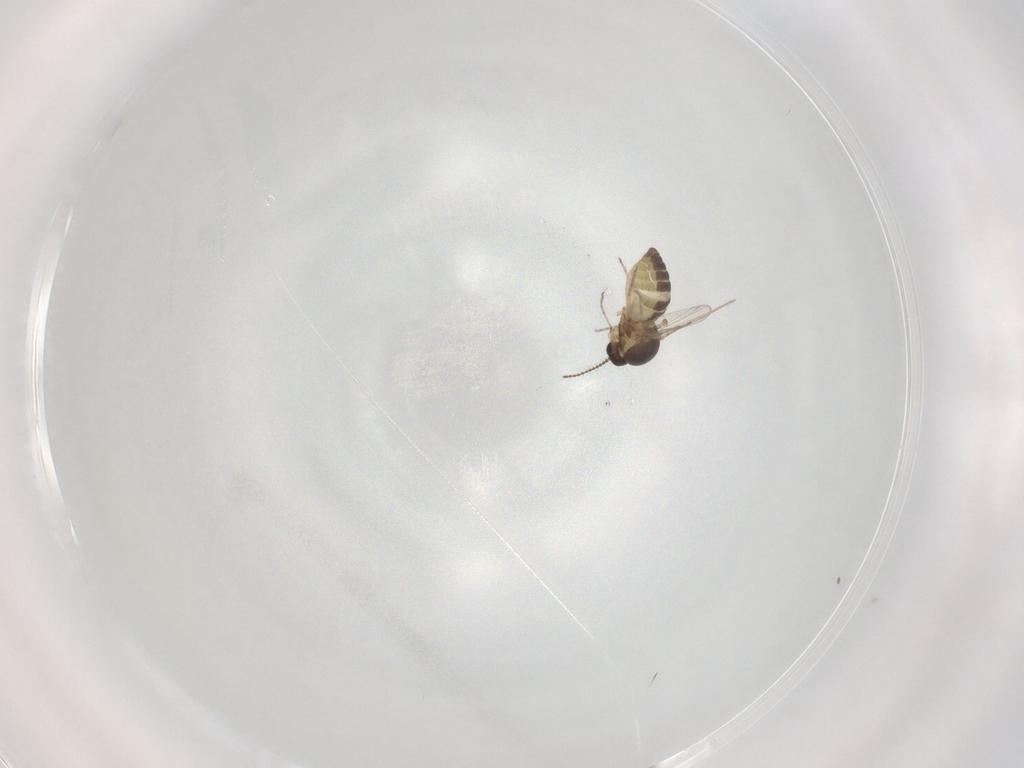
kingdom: Animalia
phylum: Arthropoda
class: Insecta
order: Diptera
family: Ceratopogonidae
